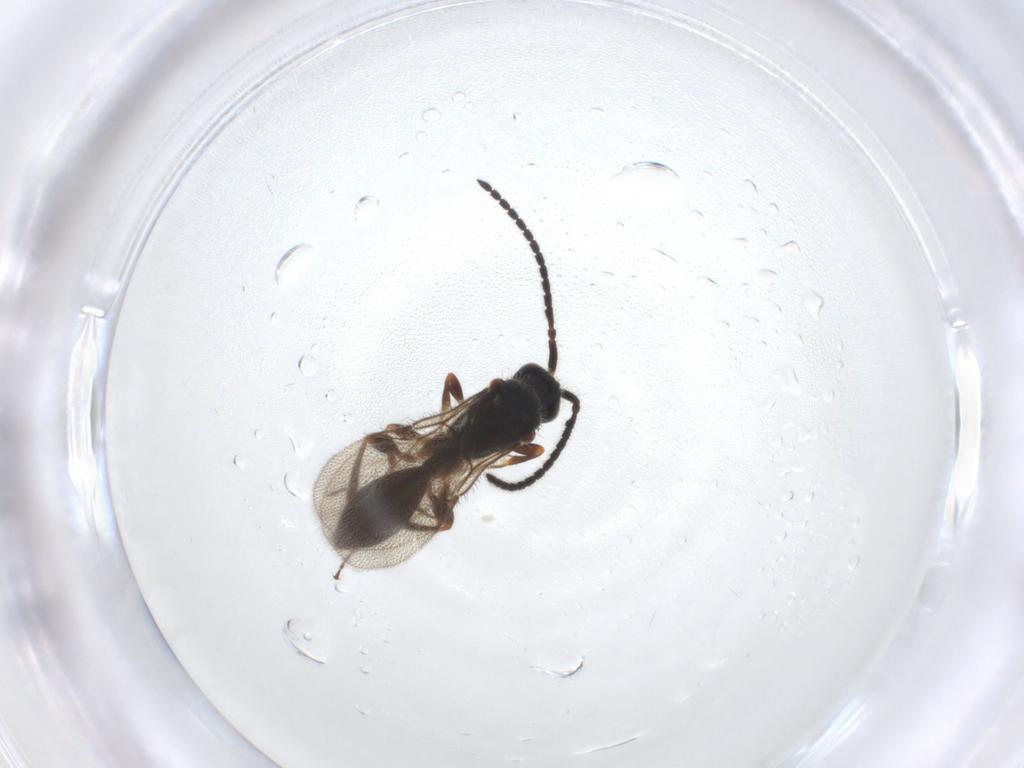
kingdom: Animalia
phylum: Arthropoda
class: Insecta
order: Hymenoptera
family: Diapriidae
